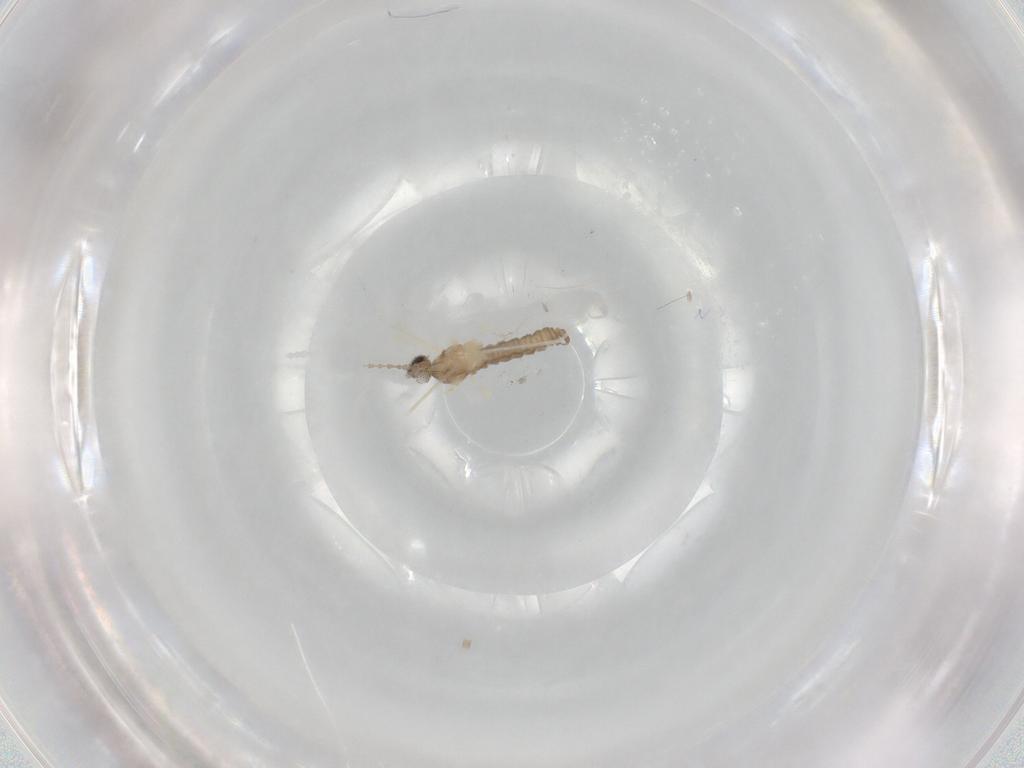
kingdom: Animalia
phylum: Arthropoda
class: Insecta
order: Diptera
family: Cecidomyiidae
